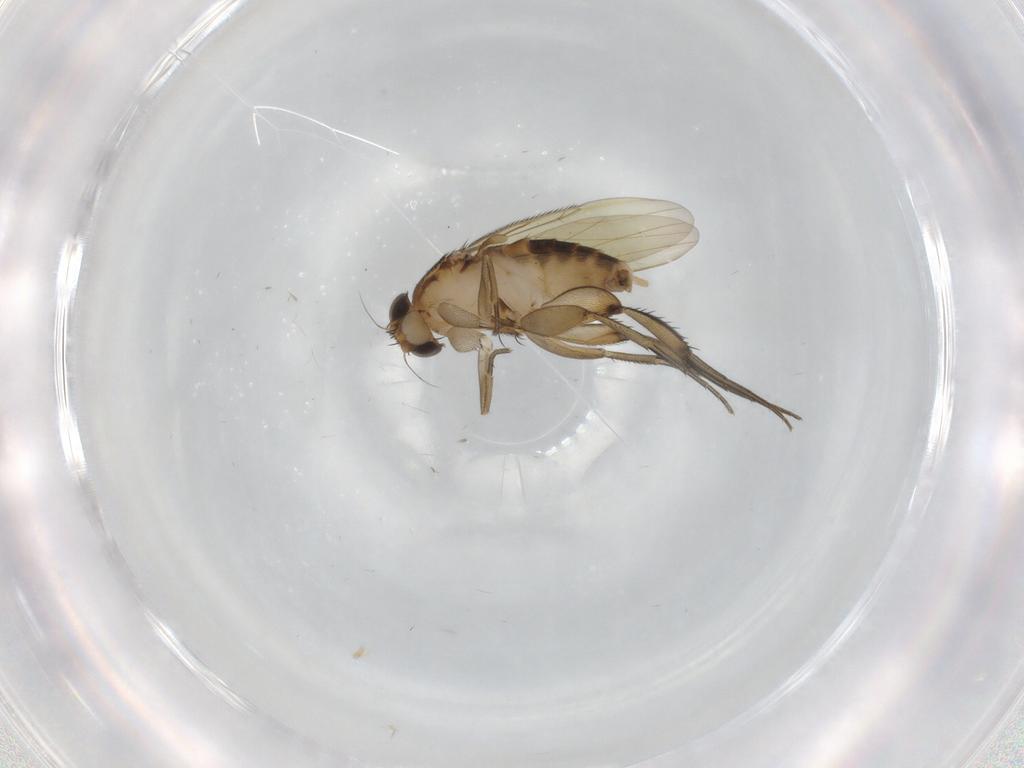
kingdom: Animalia
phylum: Arthropoda
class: Insecta
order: Diptera
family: Phoridae
